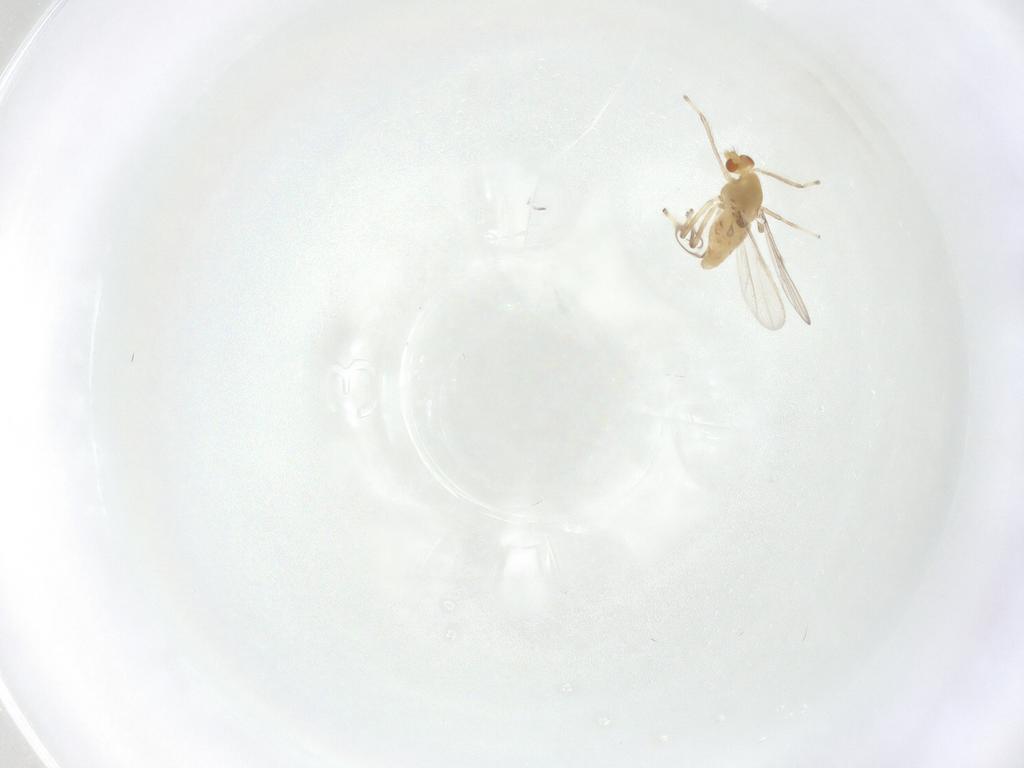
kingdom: Animalia
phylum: Arthropoda
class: Insecta
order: Diptera
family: Chironomidae
